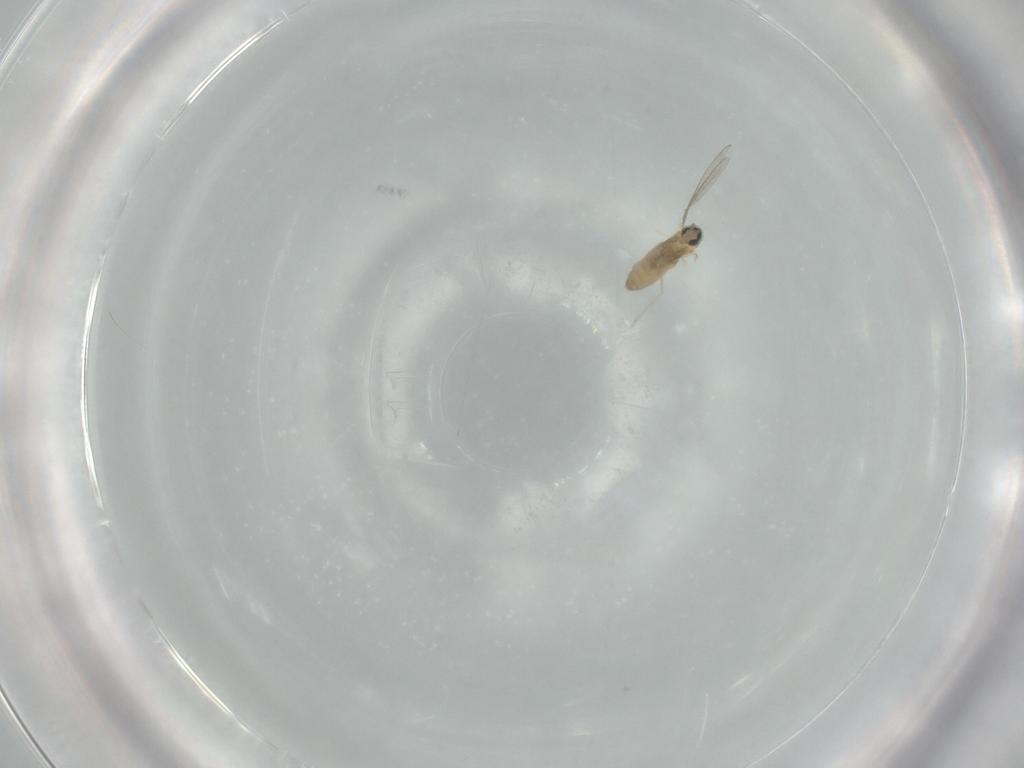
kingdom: Animalia
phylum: Arthropoda
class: Insecta
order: Diptera
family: Cecidomyiidae
